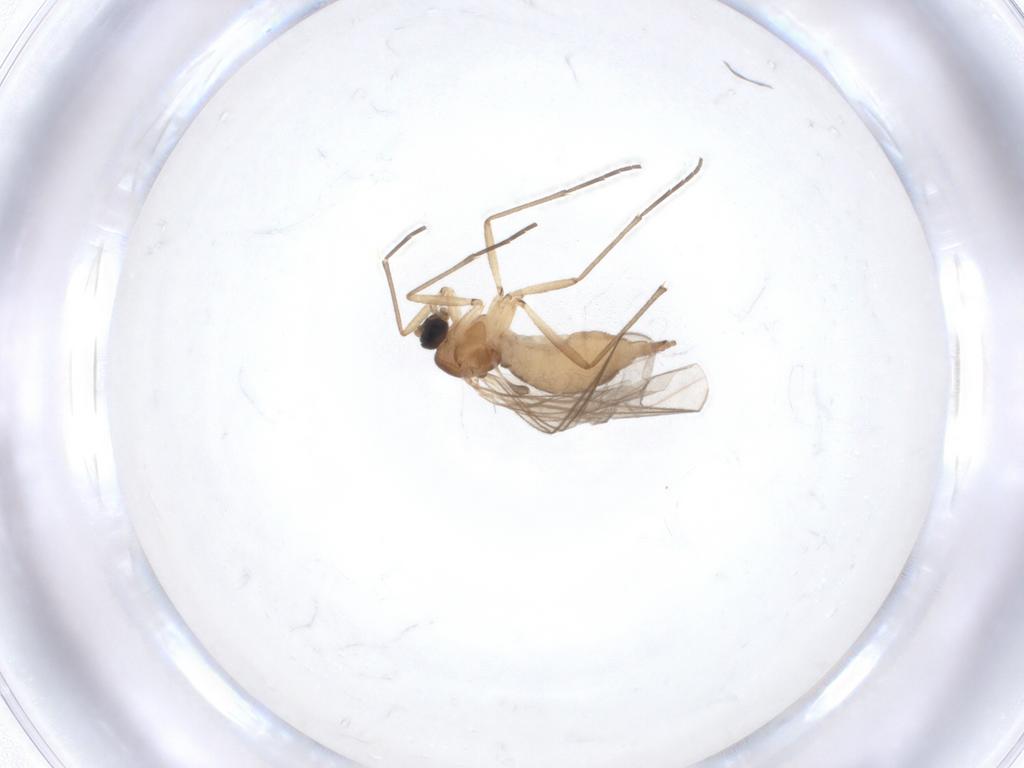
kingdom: Animalia
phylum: Arthropoda
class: Insecta
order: Diptera
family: Sciaridae
